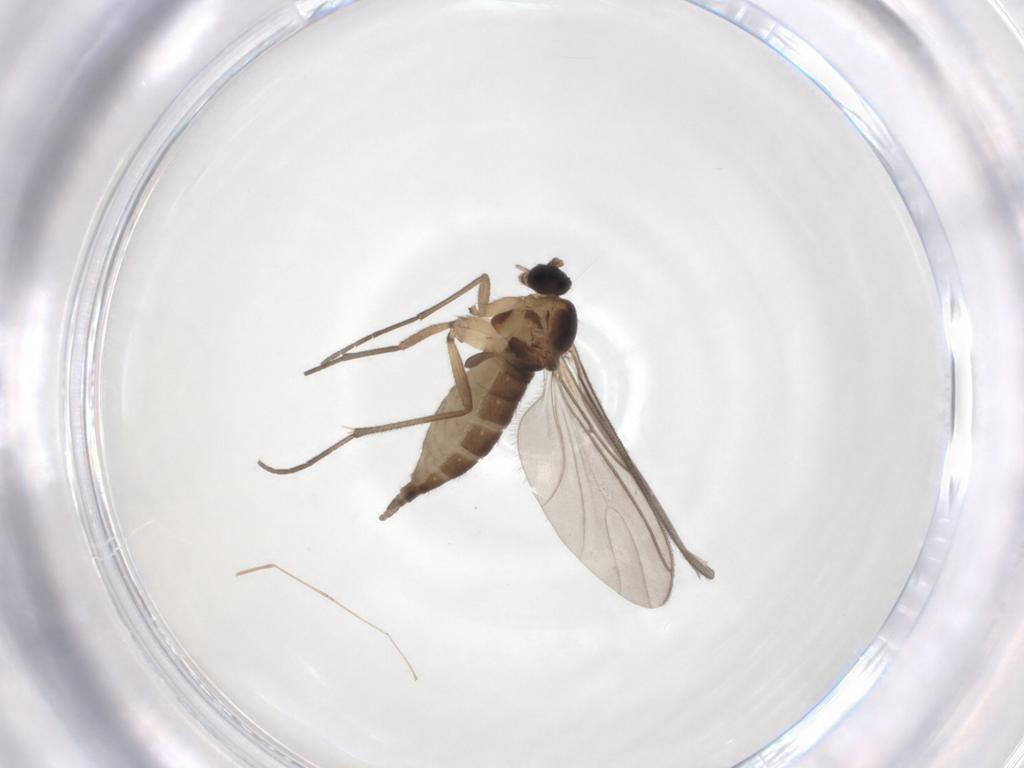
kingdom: Animalia
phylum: Arthropoda
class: Insecta
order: Diptera
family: Sciaridae
